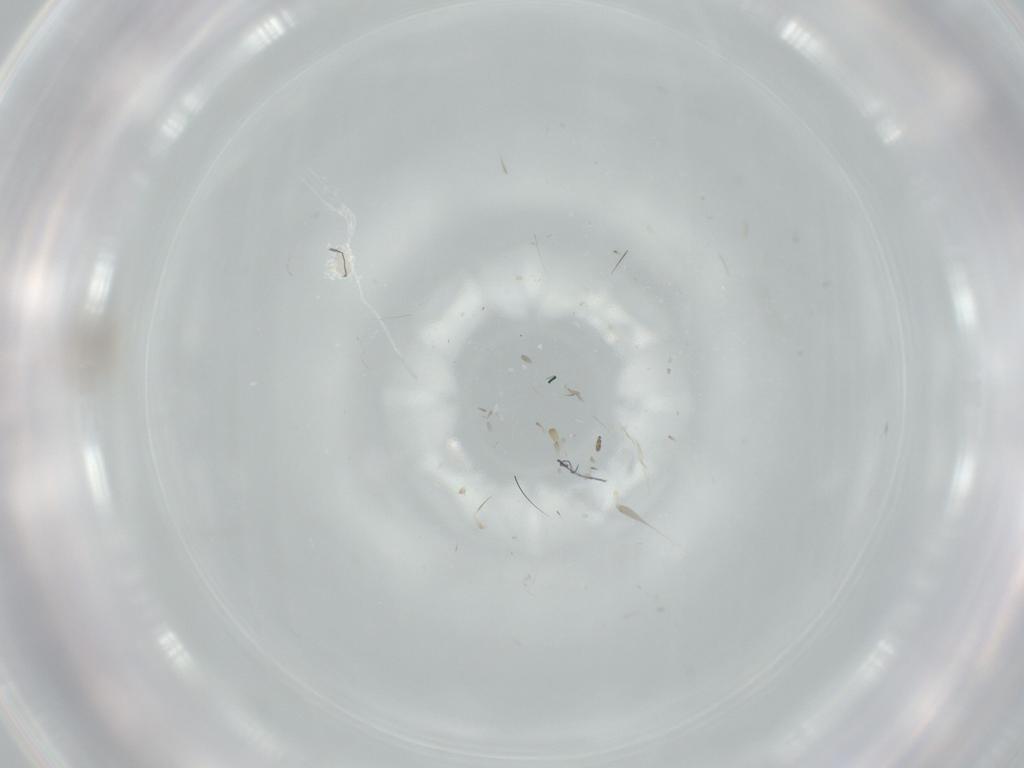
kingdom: Animalia
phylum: Arthropoda
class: Insecta
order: Hymenoptera
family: Mymaridae
